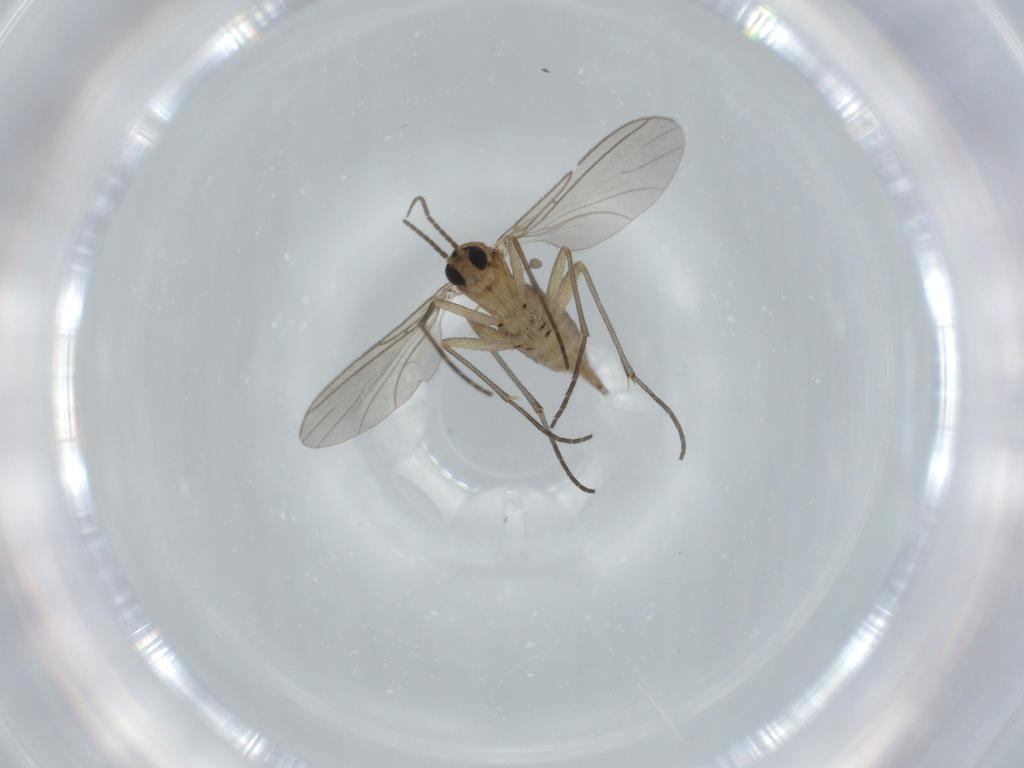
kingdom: Animalia
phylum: Arthropoda
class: Insecta
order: Diptera
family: Sciaridae
